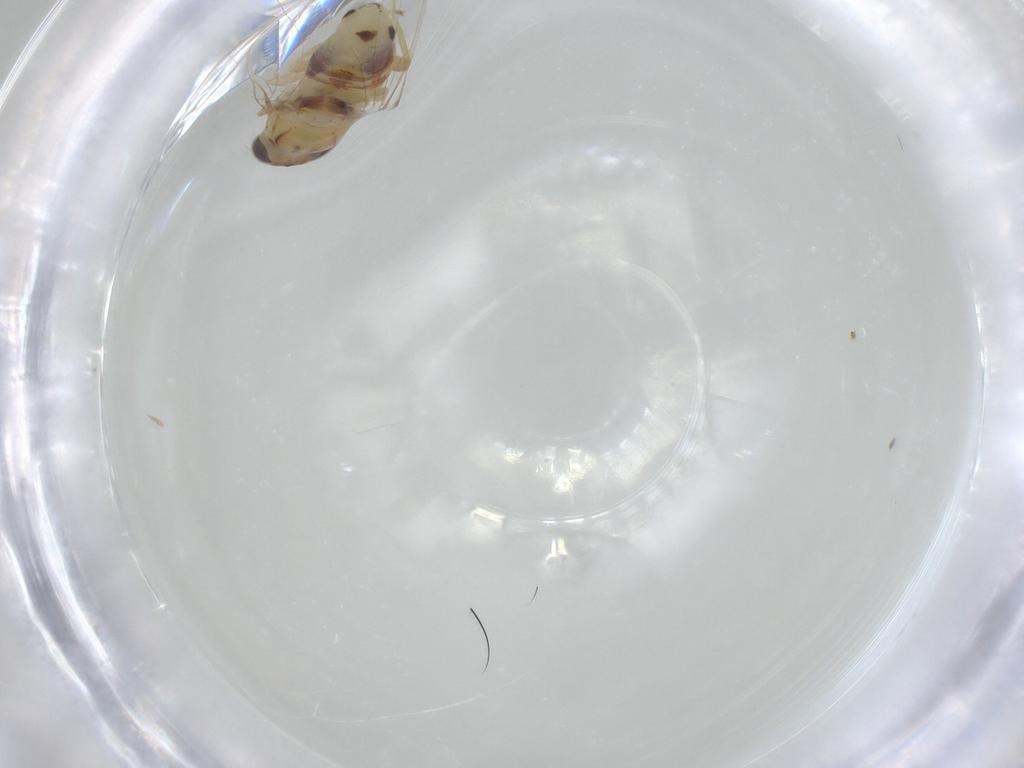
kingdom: Animalia
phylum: Arthropoda
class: Insecta
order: Diptera
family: Asteiidae
